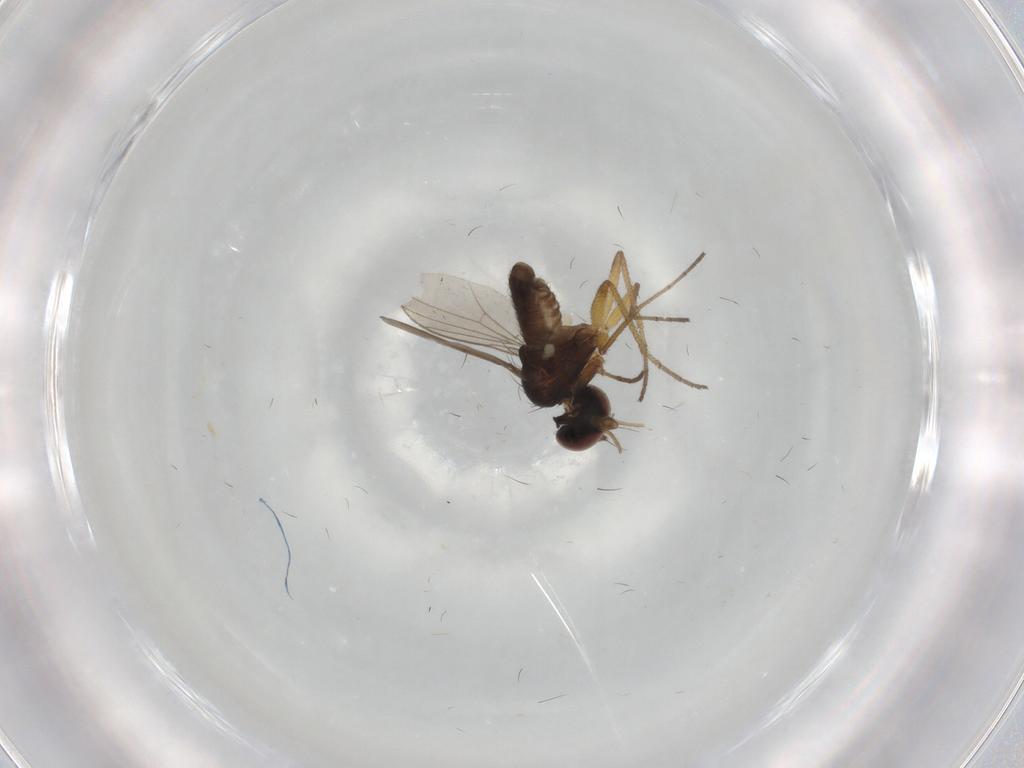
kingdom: Animalia
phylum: Arthropoda
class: Insecta
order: Diptera
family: Dolichopodidae
